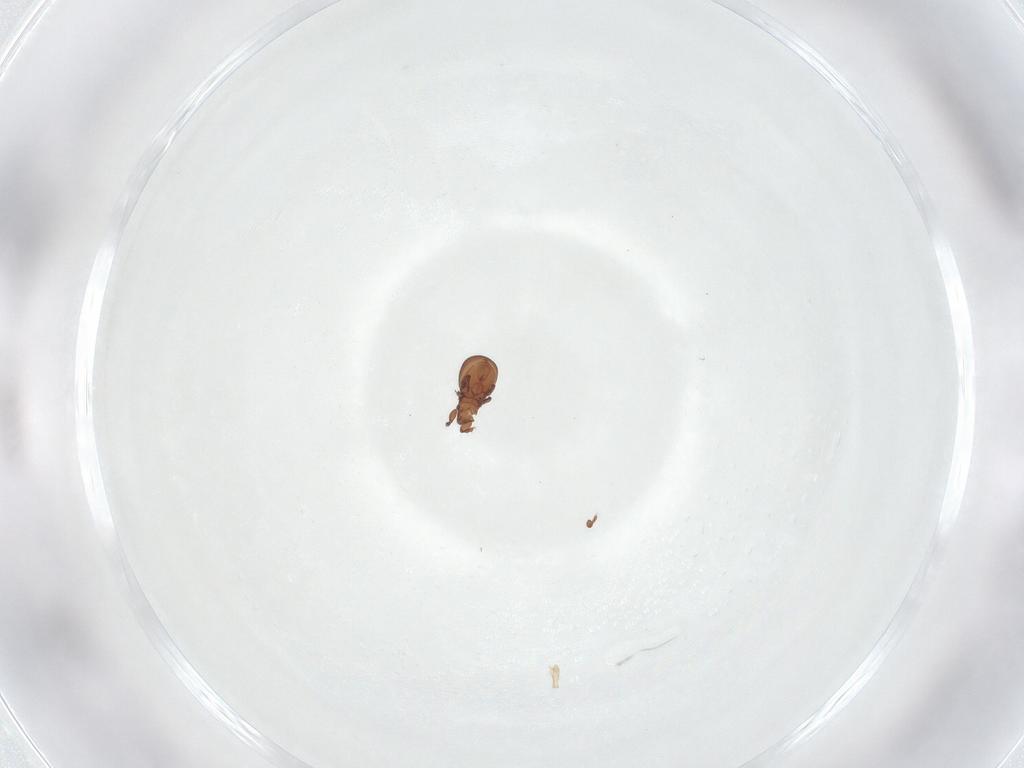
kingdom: Animalia
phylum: Arthropoda
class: Arachnida
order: Sarcoptiformes
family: Eremaeidae
